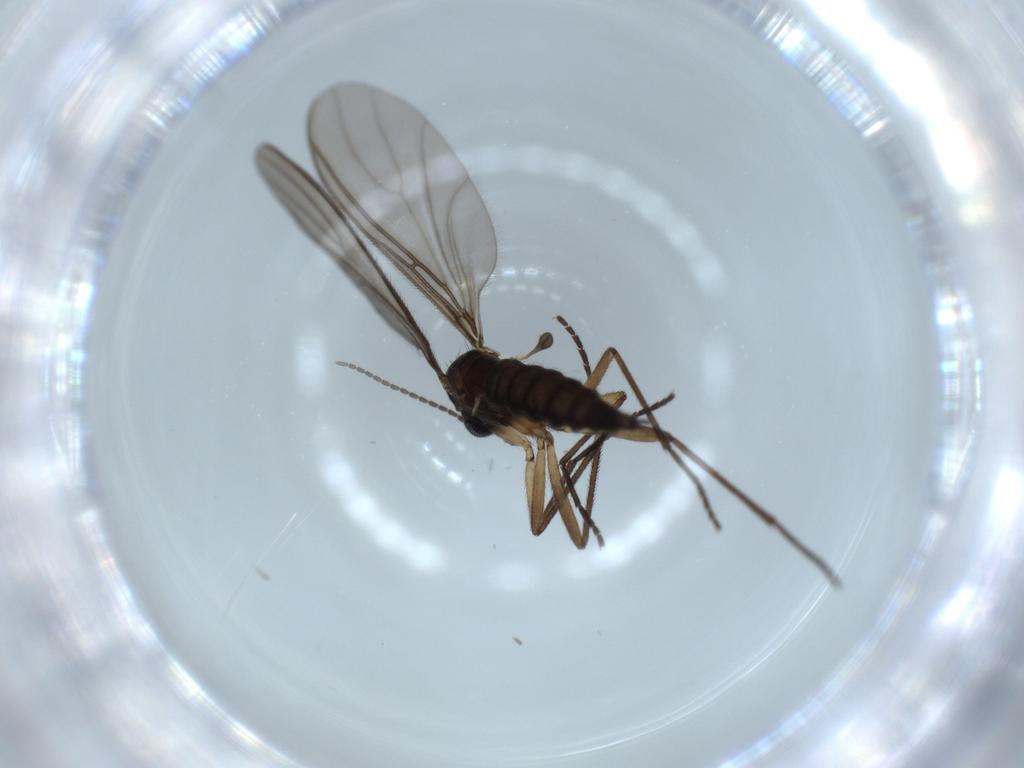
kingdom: Animalia
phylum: Arthropoda
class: Insecta
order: Diptera
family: Sciaridae
